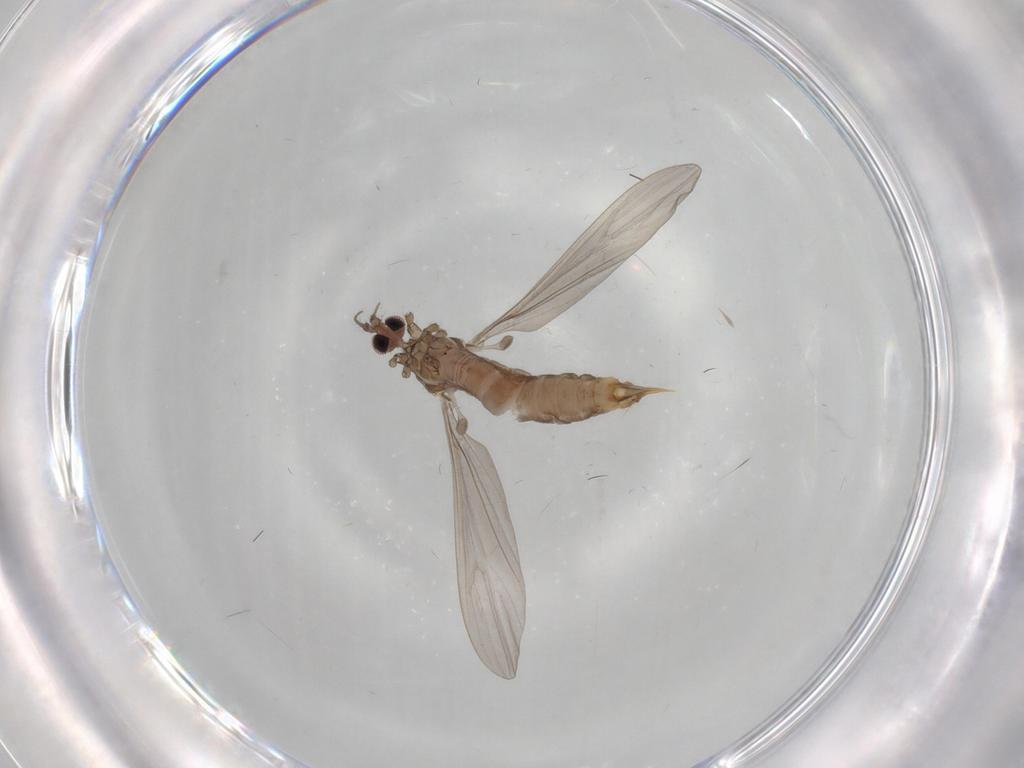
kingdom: Animalia
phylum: Arthropoda
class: Insecta
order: Diptera
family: Limoniidae
